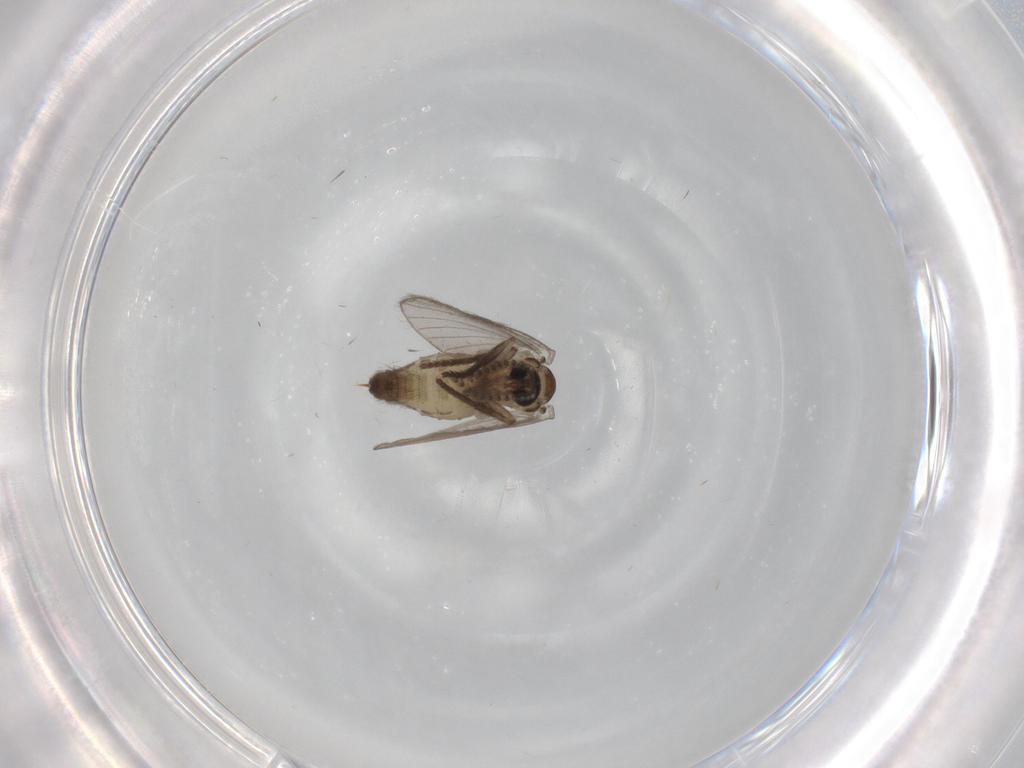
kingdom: Animalia
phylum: Arthropoda
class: Insecta
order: Diptera
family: Psychodidae
